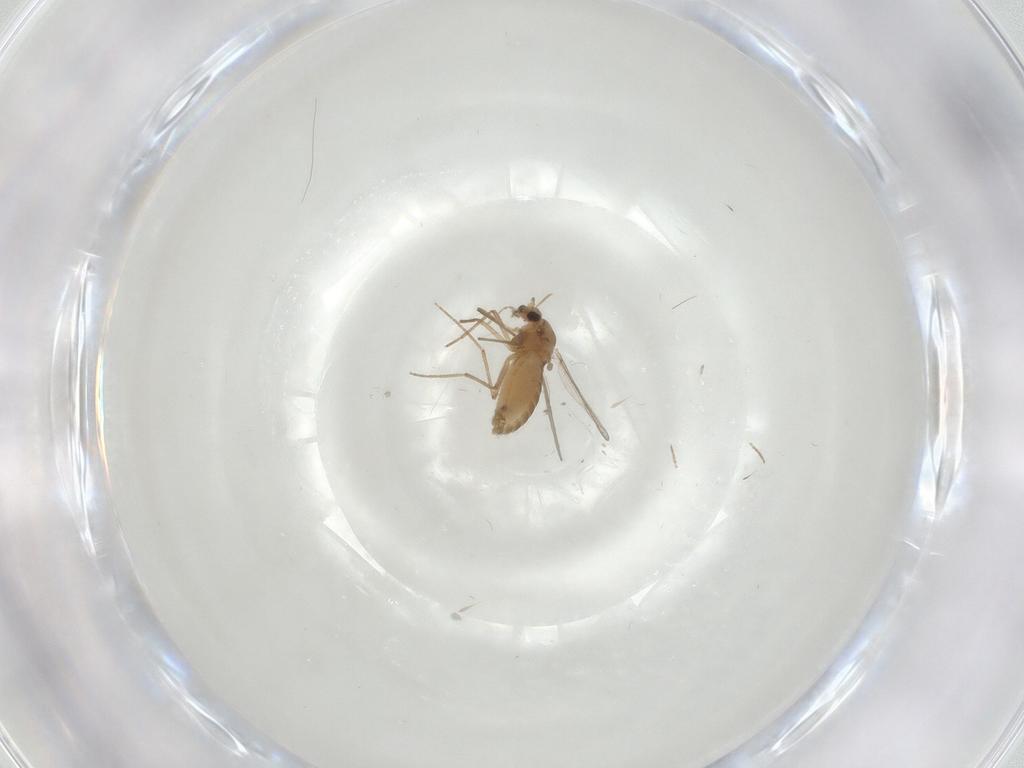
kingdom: Animalia
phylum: Arthropoda
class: Insecta
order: Diptera
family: Chironomidae
